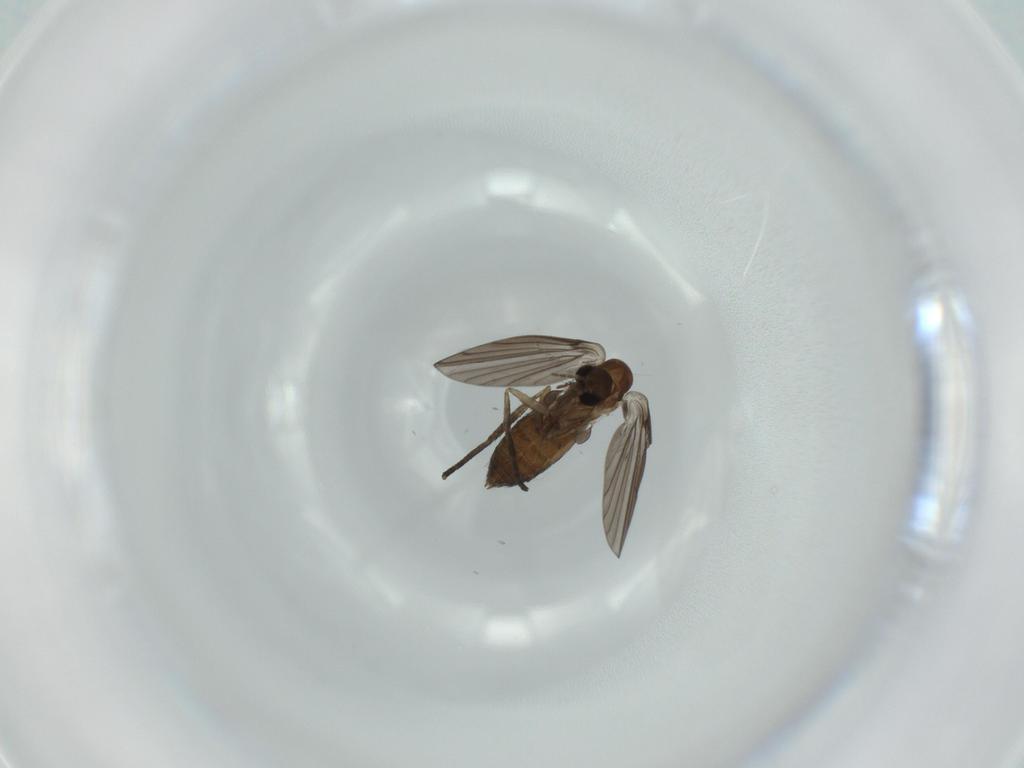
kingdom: Animalia
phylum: Arthropoda
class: Insecta
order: Diptera
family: Psychodidae
